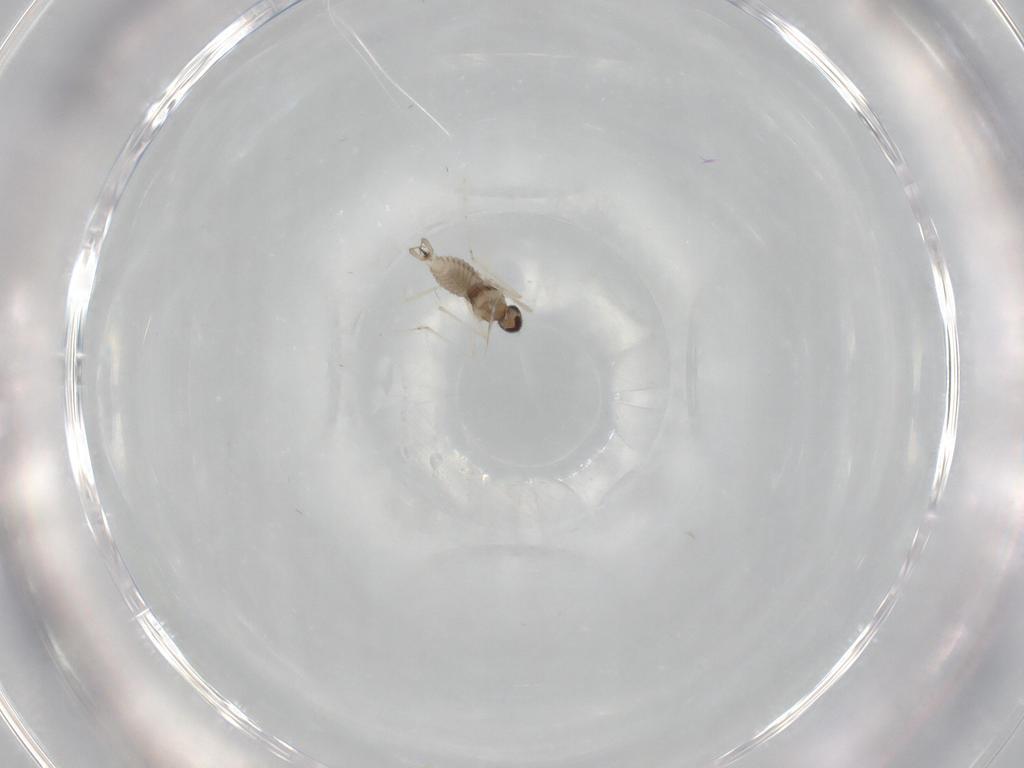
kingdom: Animalia
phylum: Arthropoda
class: Insecta
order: Diptera
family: Cecidomyiidae
